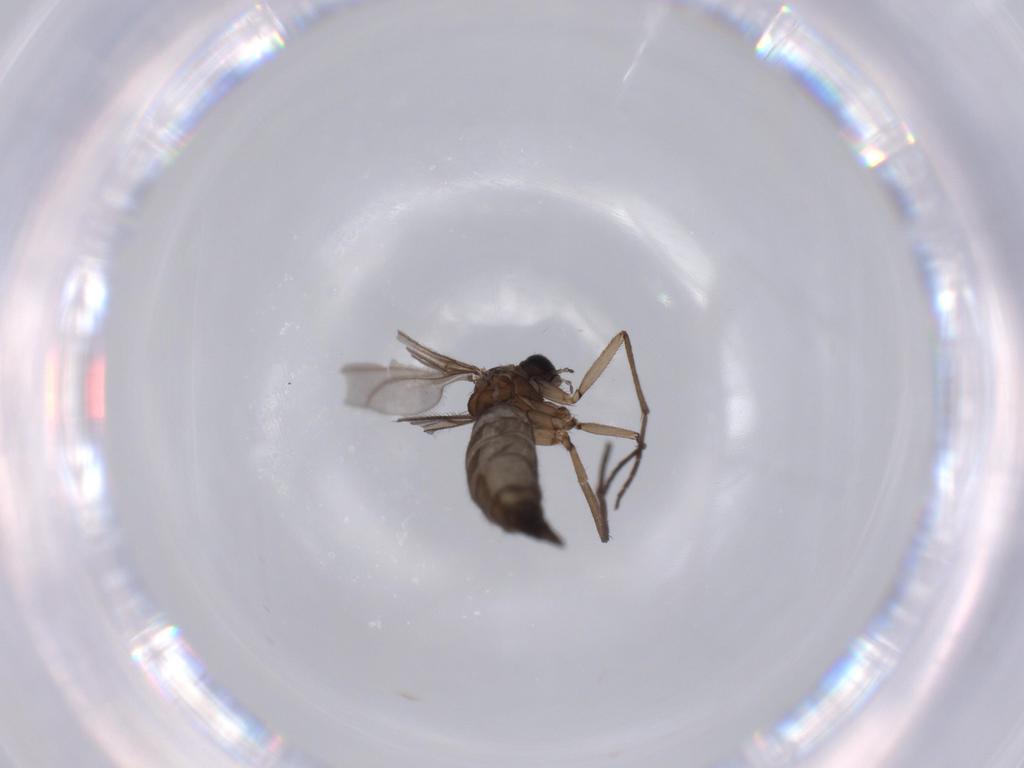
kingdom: Animalia
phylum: Arthropoda
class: Insecta
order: Diptera
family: Sciaridae
